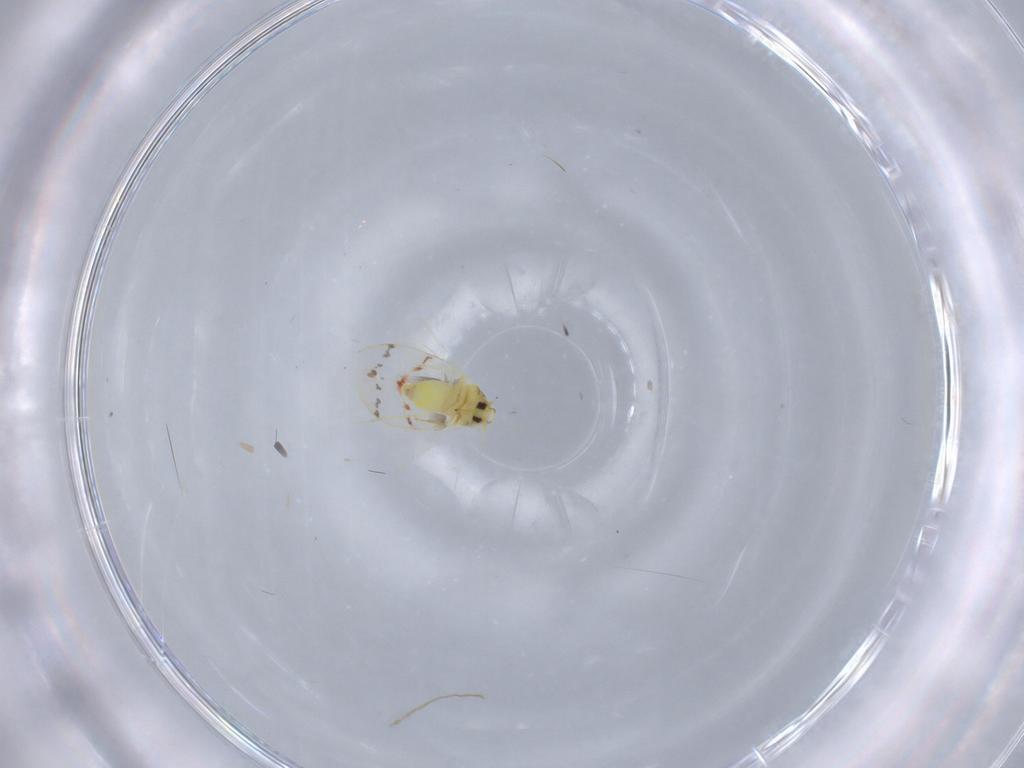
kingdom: Animalia
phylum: Arthropoda
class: Insecta
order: Hemiptera
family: Aleyrodidae
